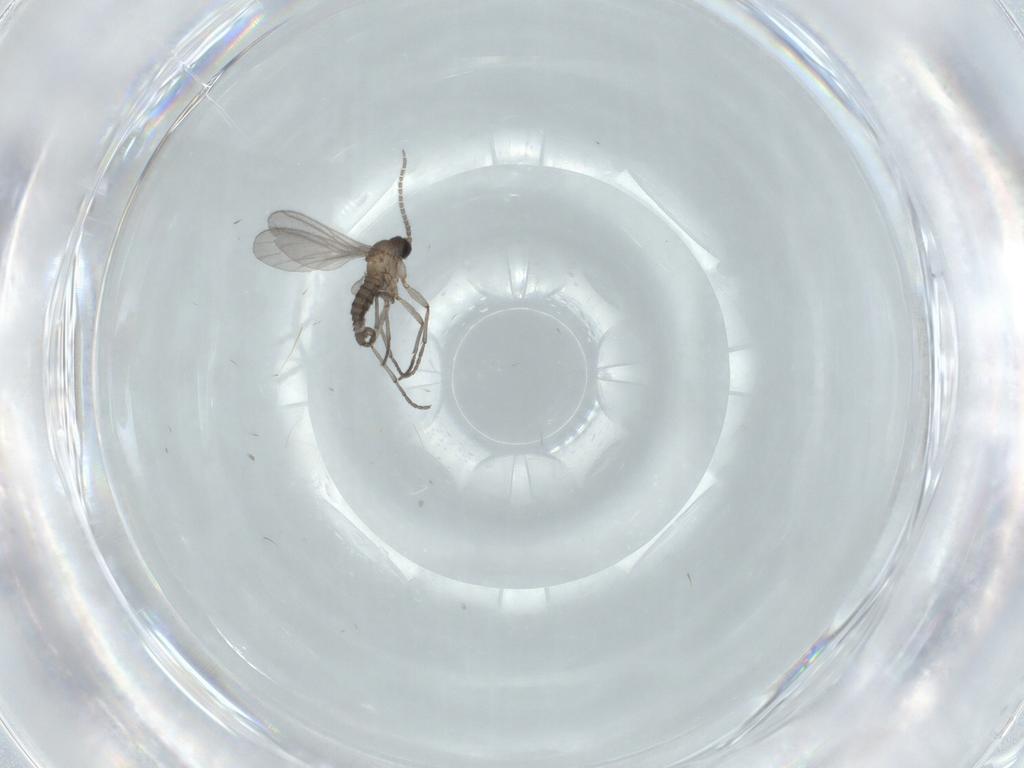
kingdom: Animalia
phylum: Arthropoda
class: Insecta
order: Diptera
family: Sciaridae
